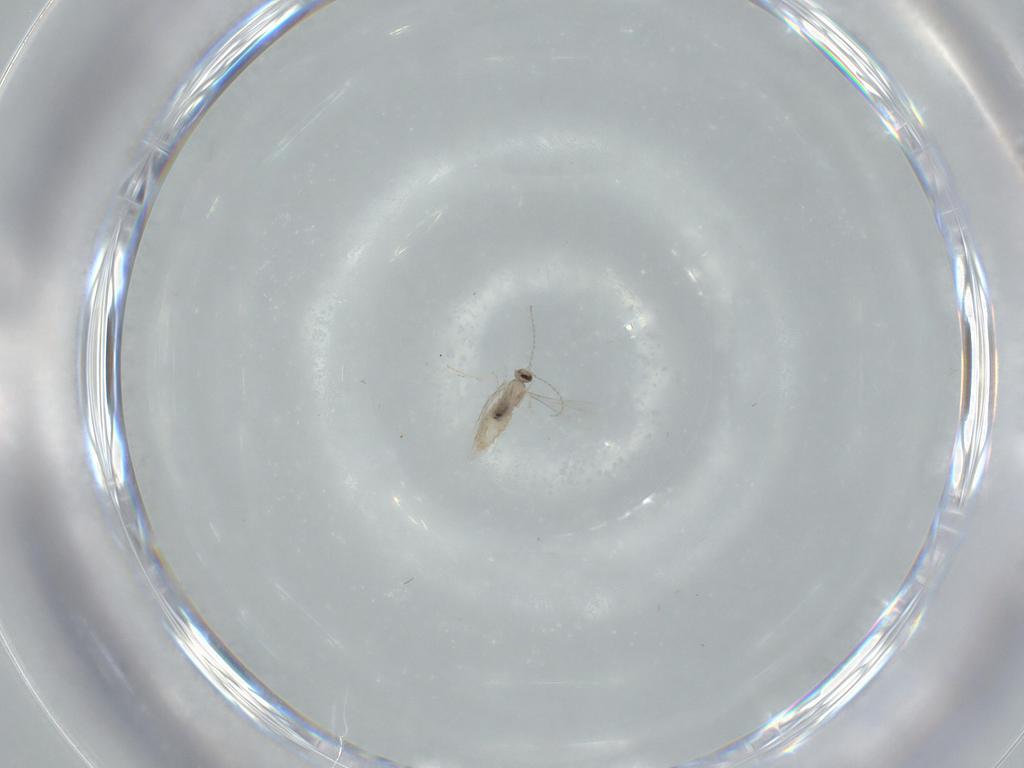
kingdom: Animalia
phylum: Arthropoda
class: Insecta
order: Diptera
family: Cecidomyiidae
